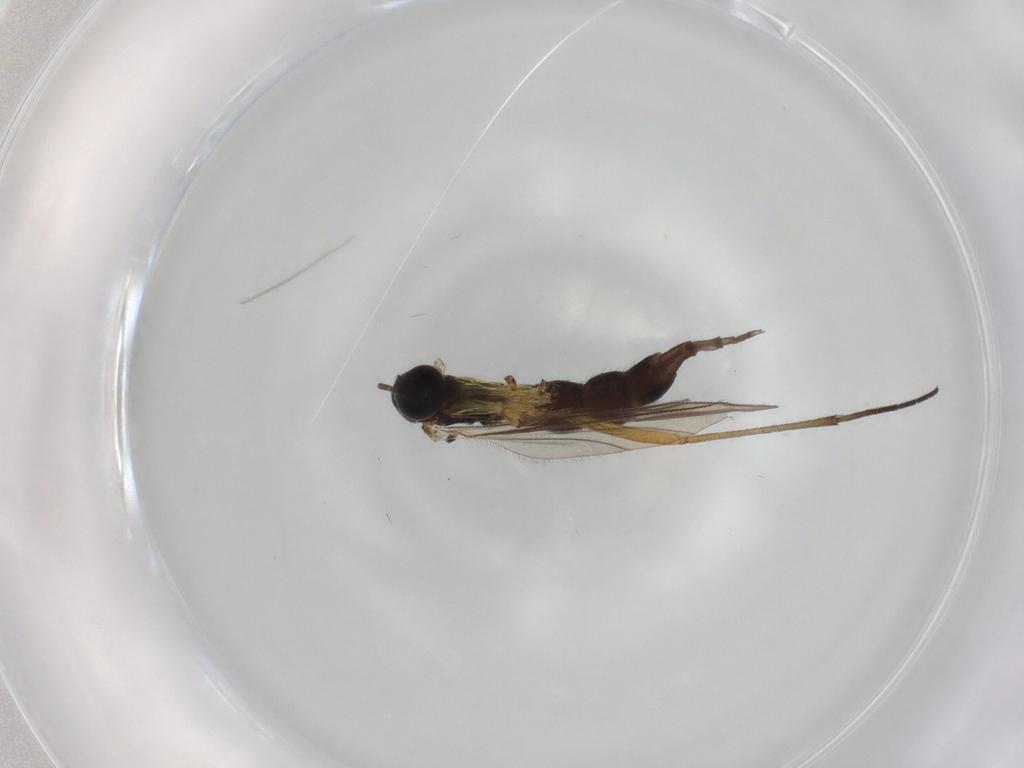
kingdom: Animalia
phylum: Arthropoda
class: Insecta
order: Diptera
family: Sciaridae
